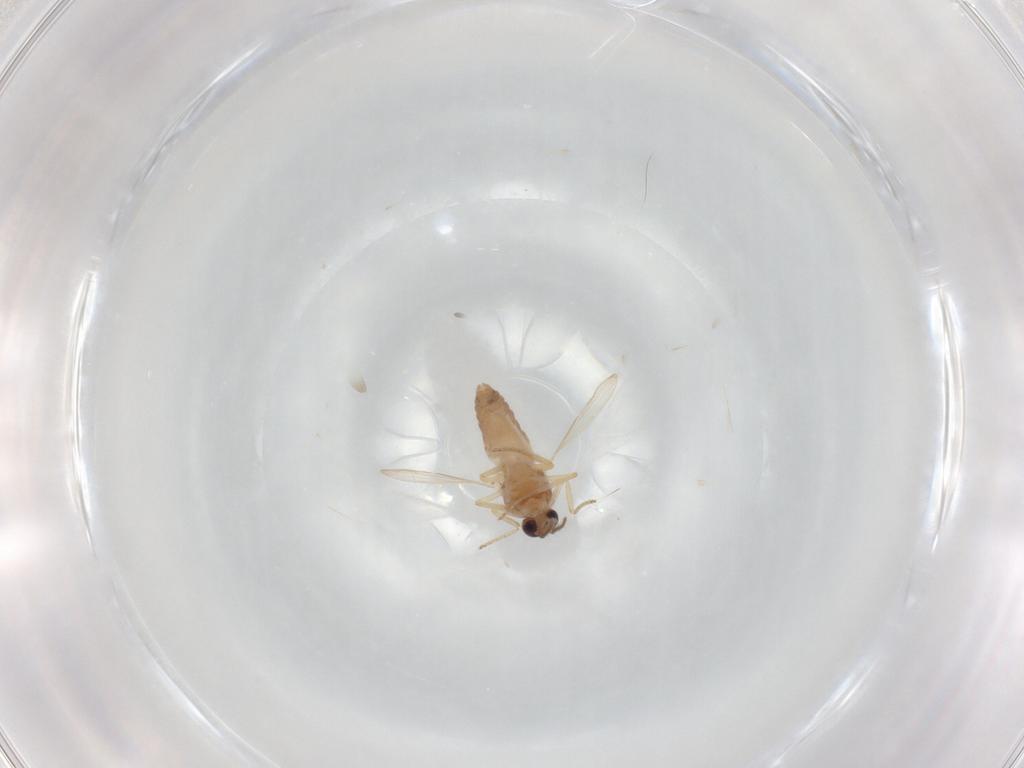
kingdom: Animalia
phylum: Arthropoda
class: Insecta
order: Diptera
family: Ceratopogonidae
